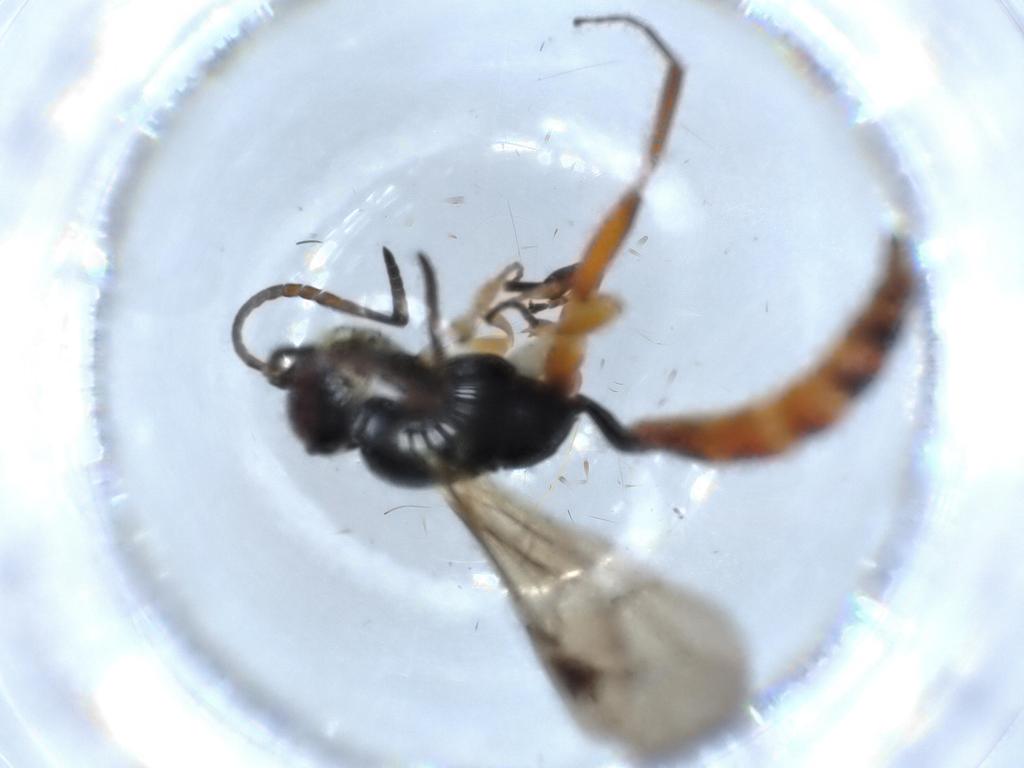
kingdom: Animalia
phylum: Arthropoda
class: Insecta
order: Hymenoptera
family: Ichneumonidae
